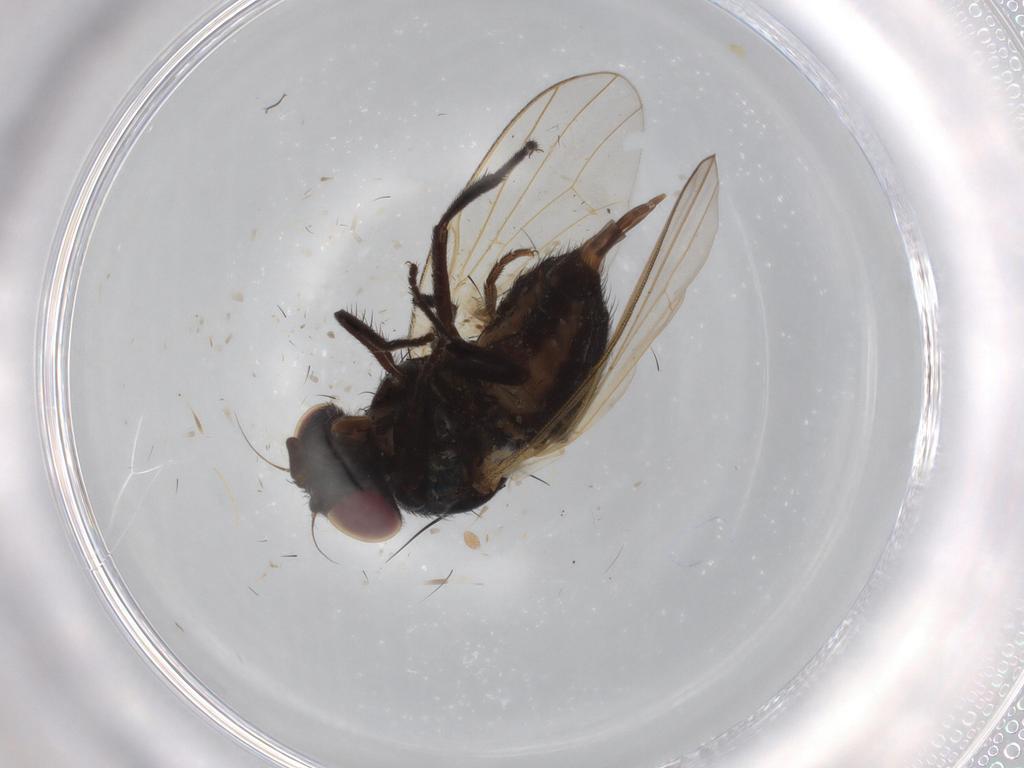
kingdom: Animalia
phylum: Arthropoda
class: Insecta
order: Diptera
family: Chloropidae
